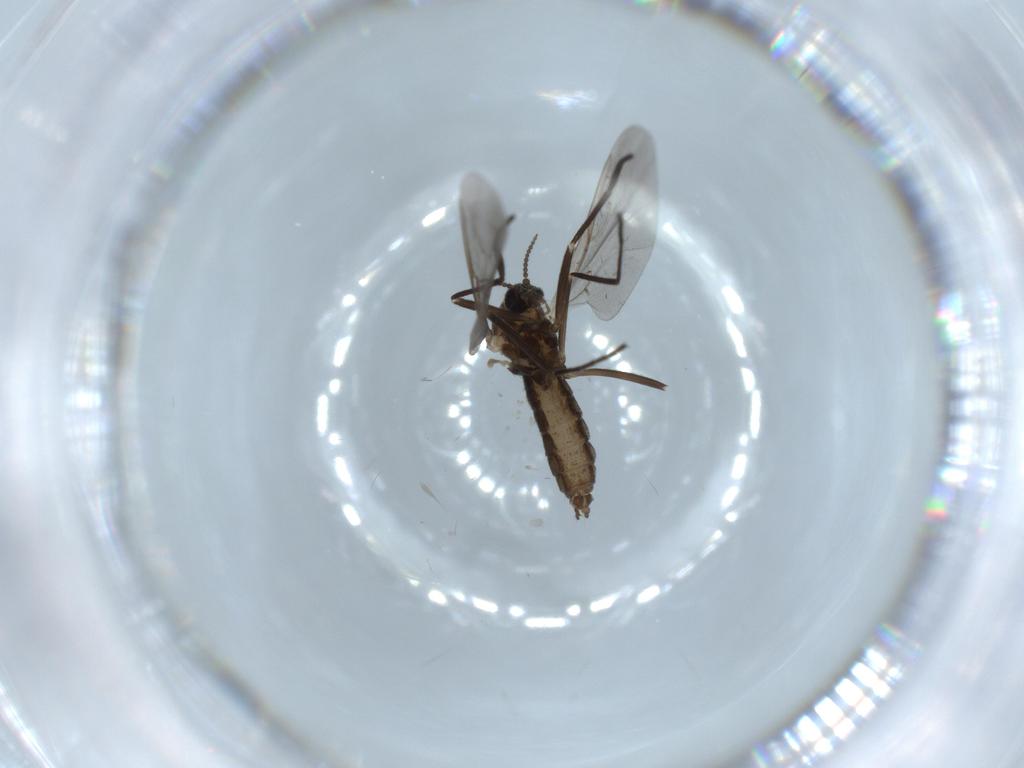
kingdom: Animalia
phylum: Arthropoda
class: Insecta
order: Diptera
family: Cecidomyiidae
